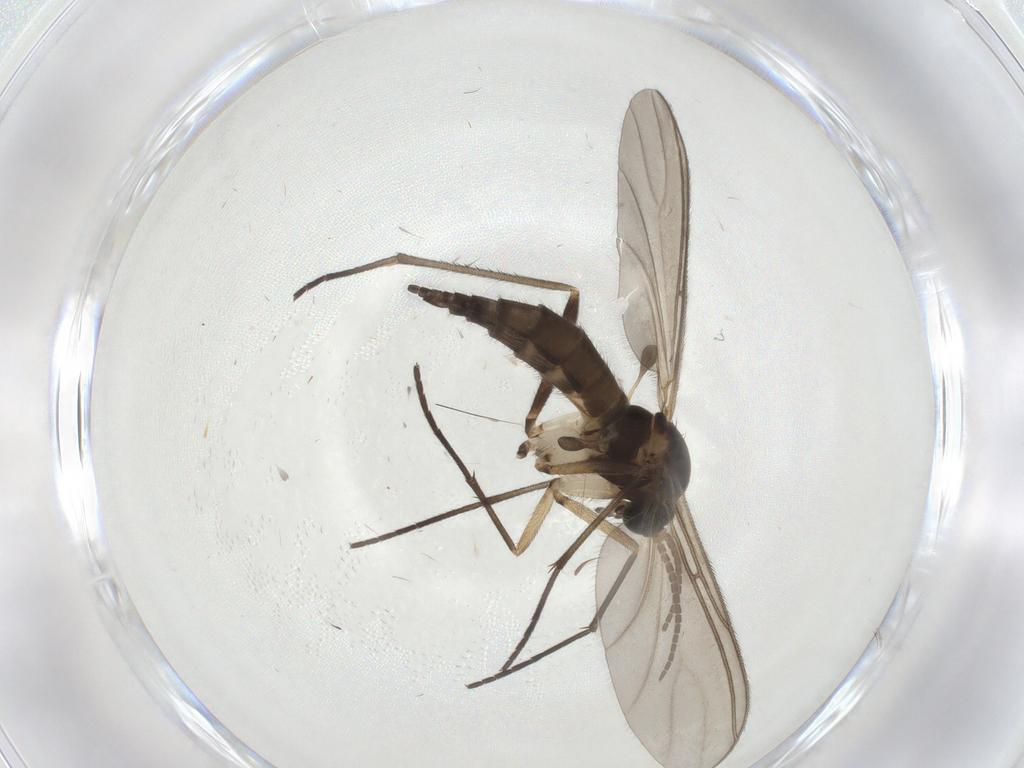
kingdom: Animalia
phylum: Arthropoda
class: Insecta
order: Diptera
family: Sciaridae
